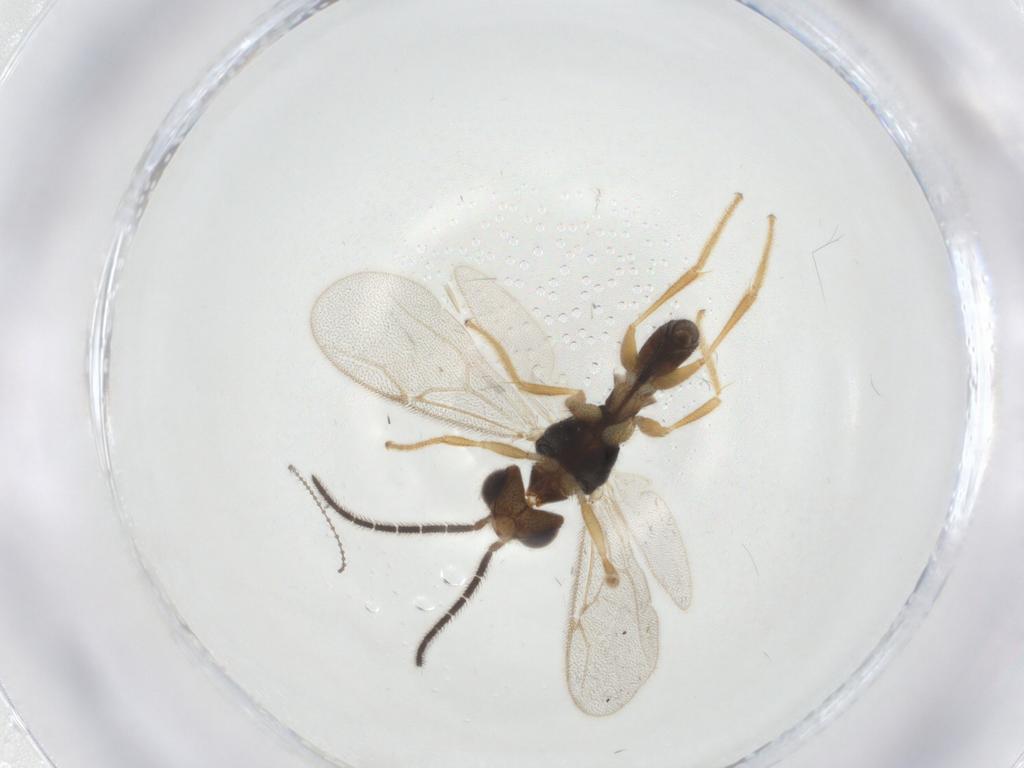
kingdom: Animalia
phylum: Arthropoda
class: Insecta
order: Hymenoptera
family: Dryinidae
